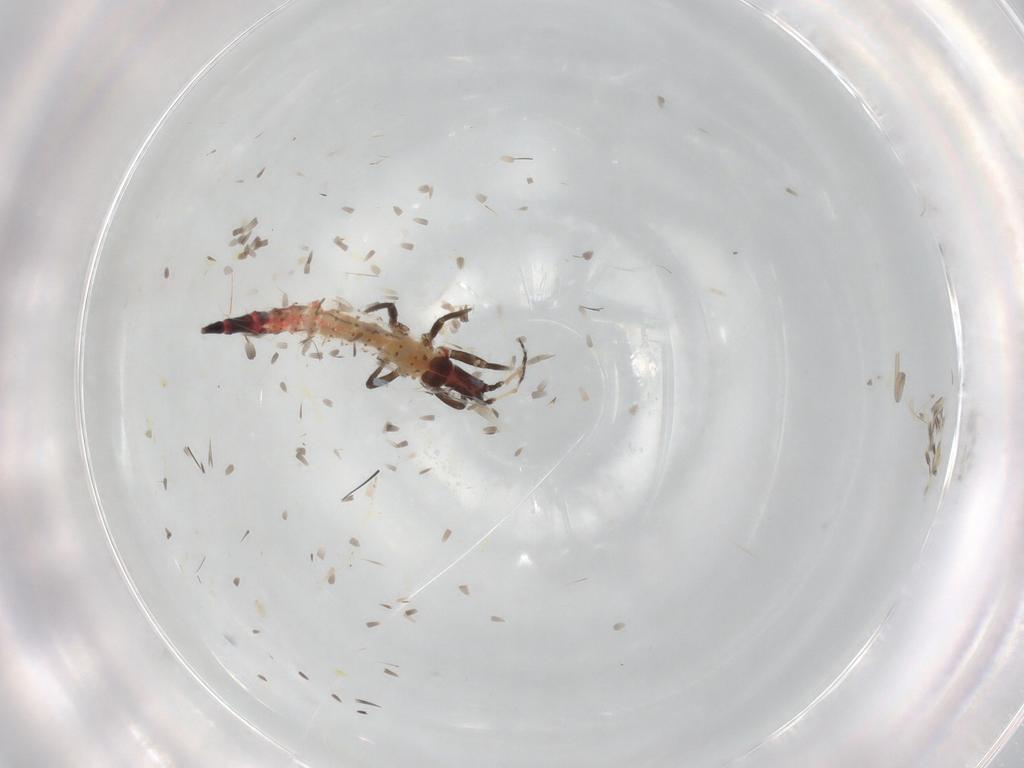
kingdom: Animalia
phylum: Arthropoda
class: Insecta
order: Thysanoptera
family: Phlaeothripidae
